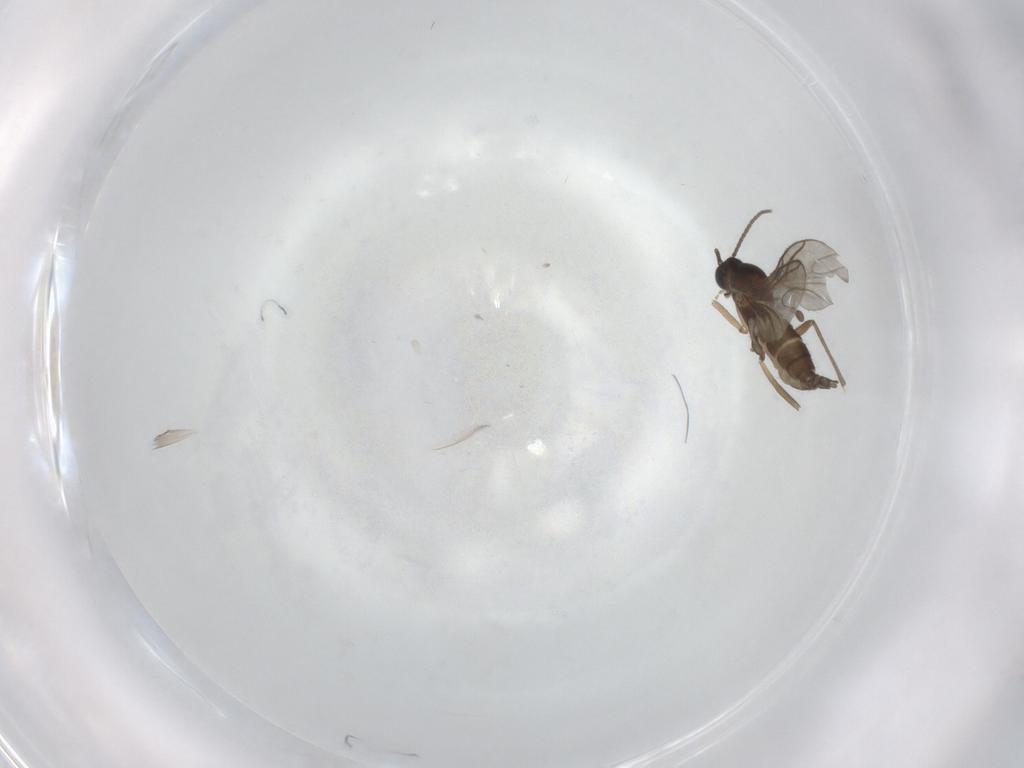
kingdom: Animalia
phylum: Arthropoda
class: Insecta
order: Diptera
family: Sciaridae
